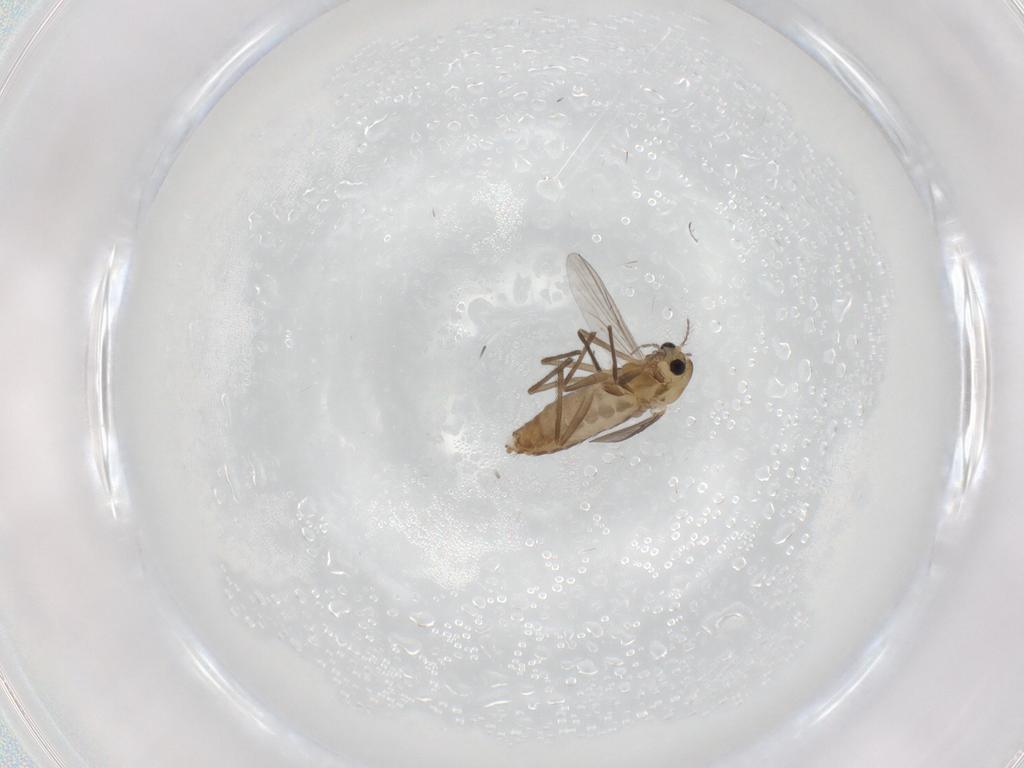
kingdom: Animalia
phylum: Arthropoda
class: Insecta
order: Diptera
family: Chironomidae
